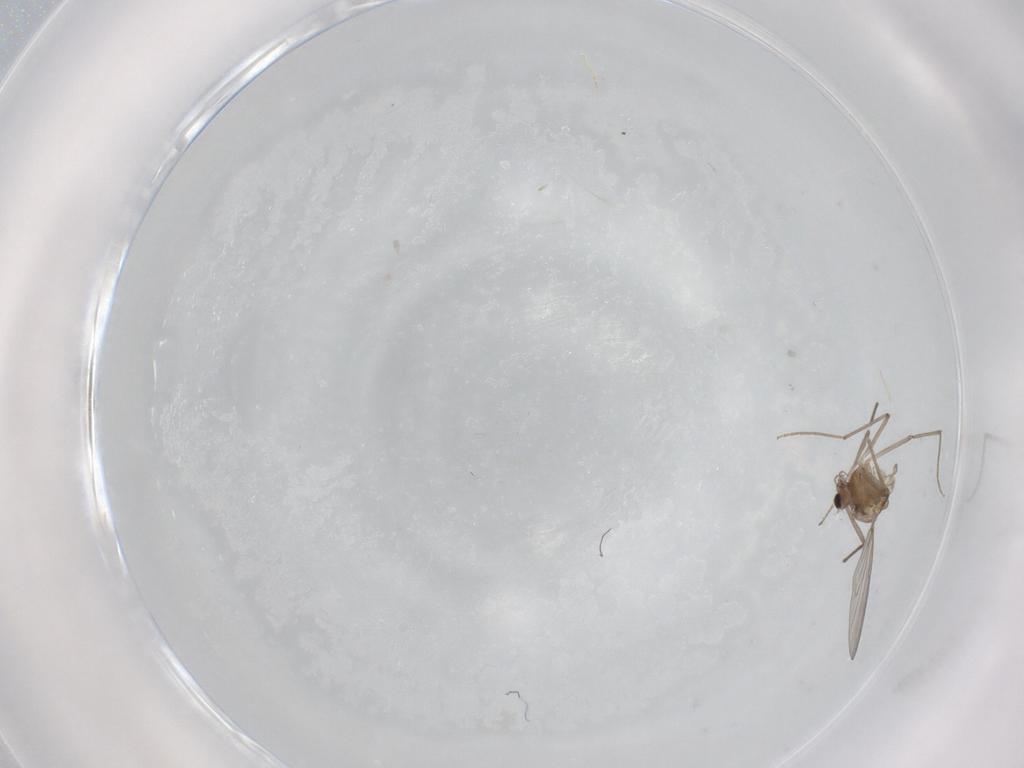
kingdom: Animalia
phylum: Arthropoda
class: Insecta
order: Diptera
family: Chironomidae
